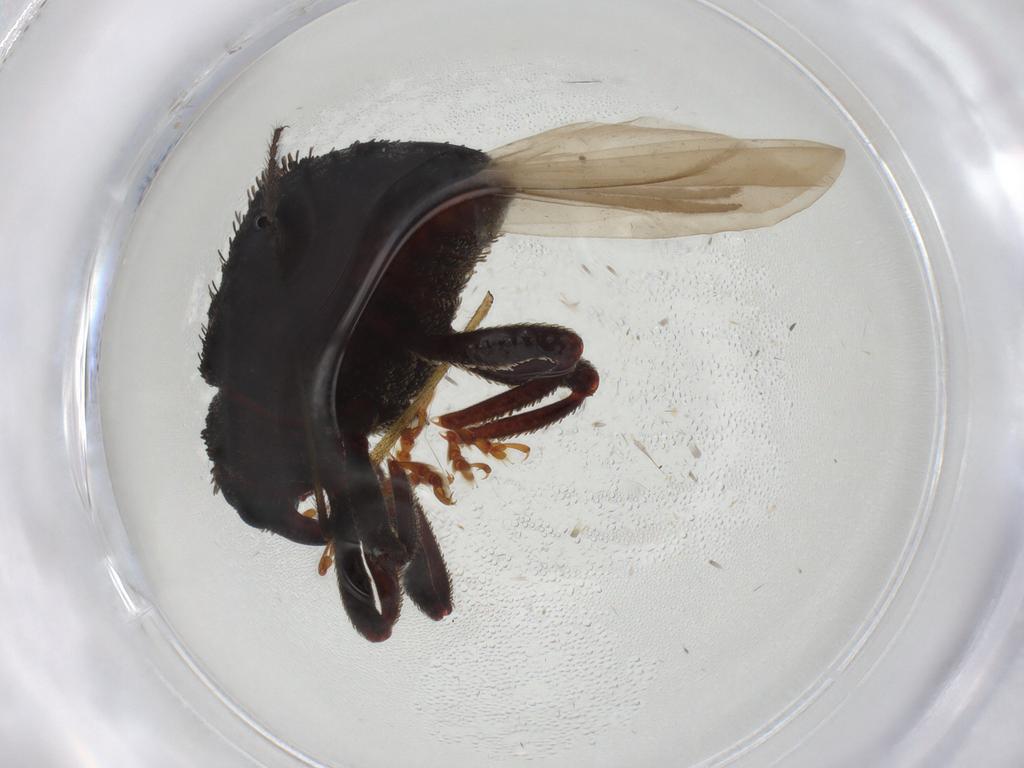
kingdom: Animalia
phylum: Arthropoda
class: Insecta
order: Coleoptera
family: Curculionidae
